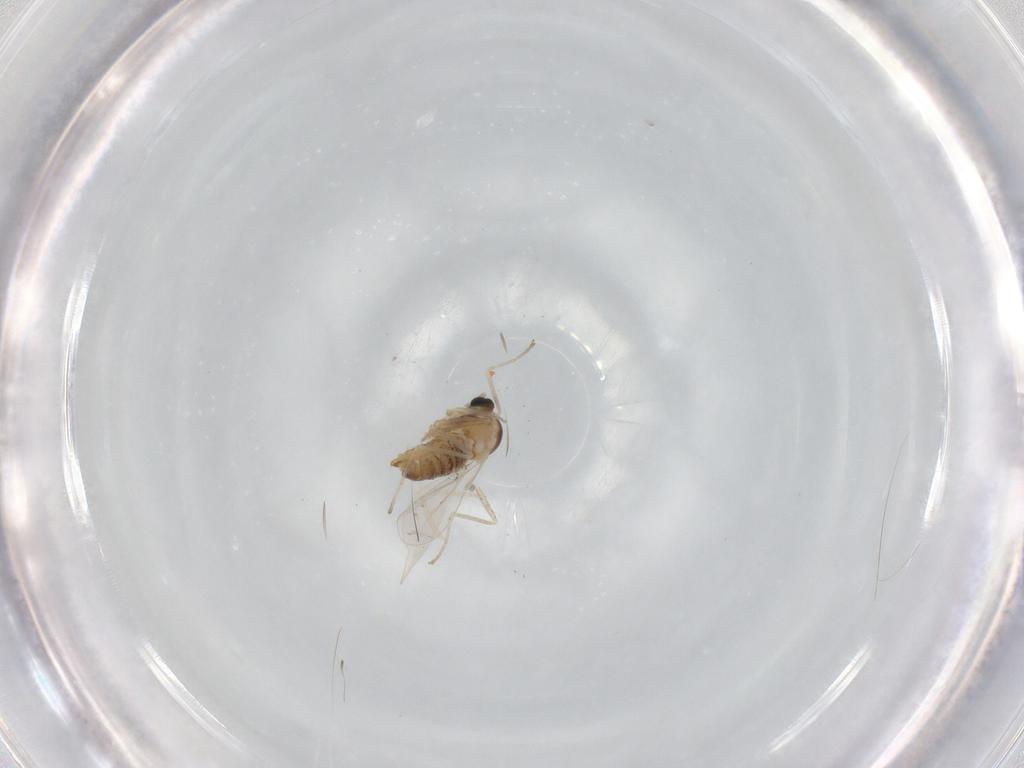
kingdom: Animalia
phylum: Arthropoda
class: Insecta
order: Diptera
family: Cecidomyiidae
